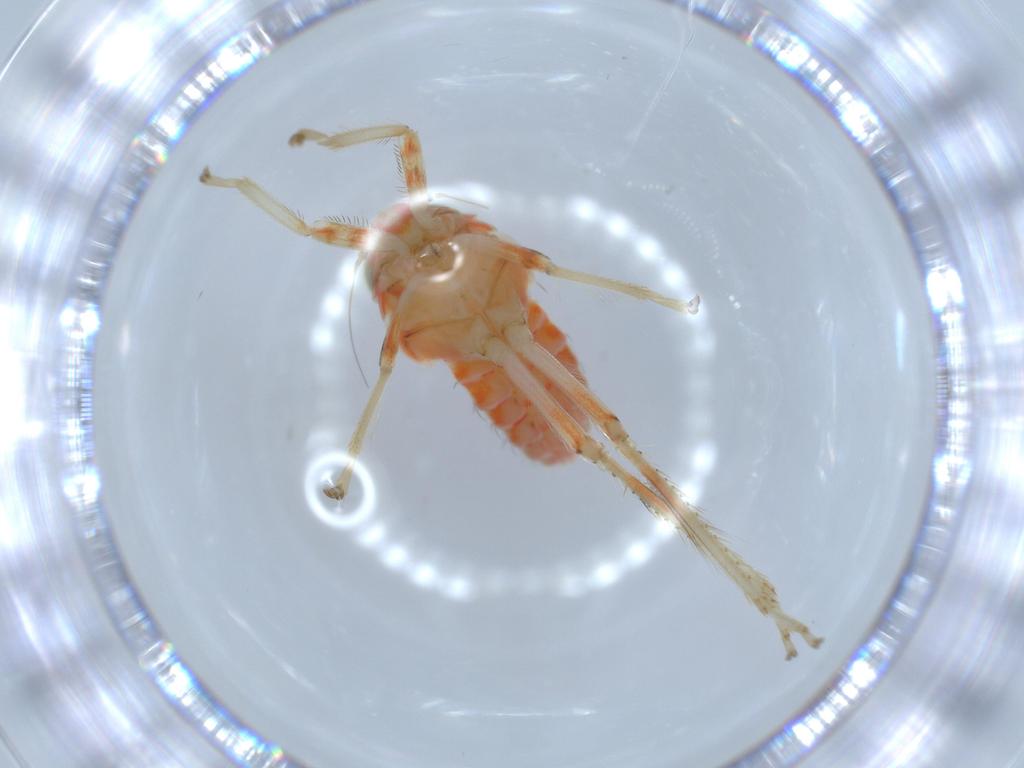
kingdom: Animalia
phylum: Arthropoda
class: Insecta
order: Hemiptera
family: Cicadellidae
